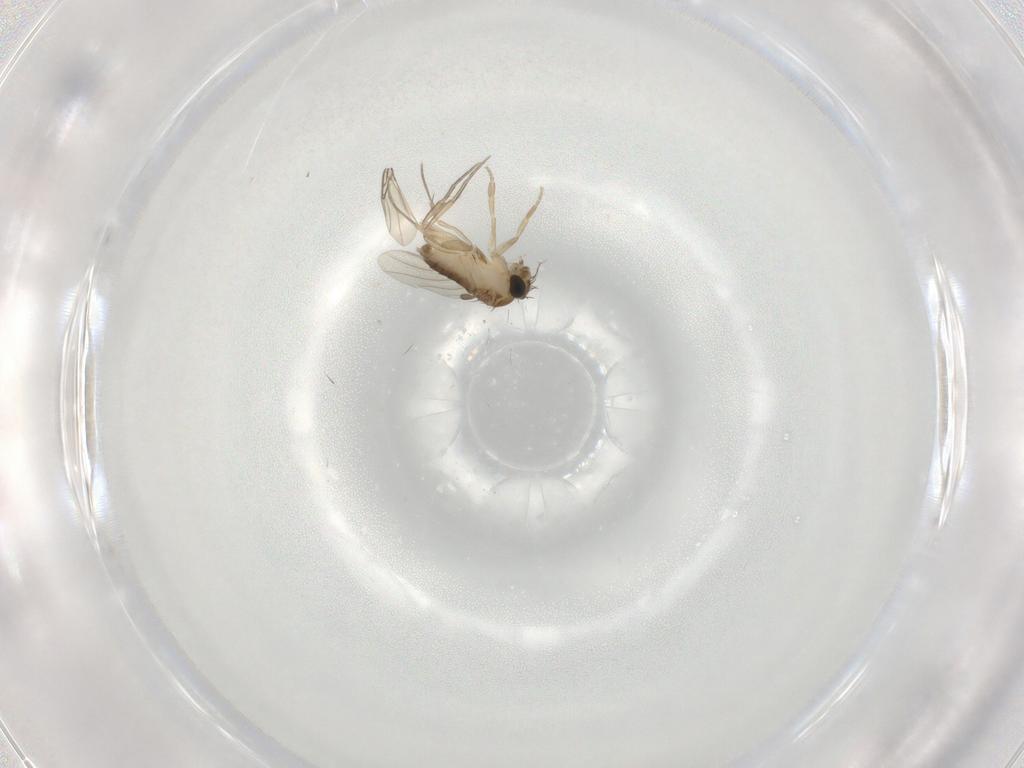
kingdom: Animalia
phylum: Arthropoda
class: Insecta
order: Diptera
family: Phoridae
